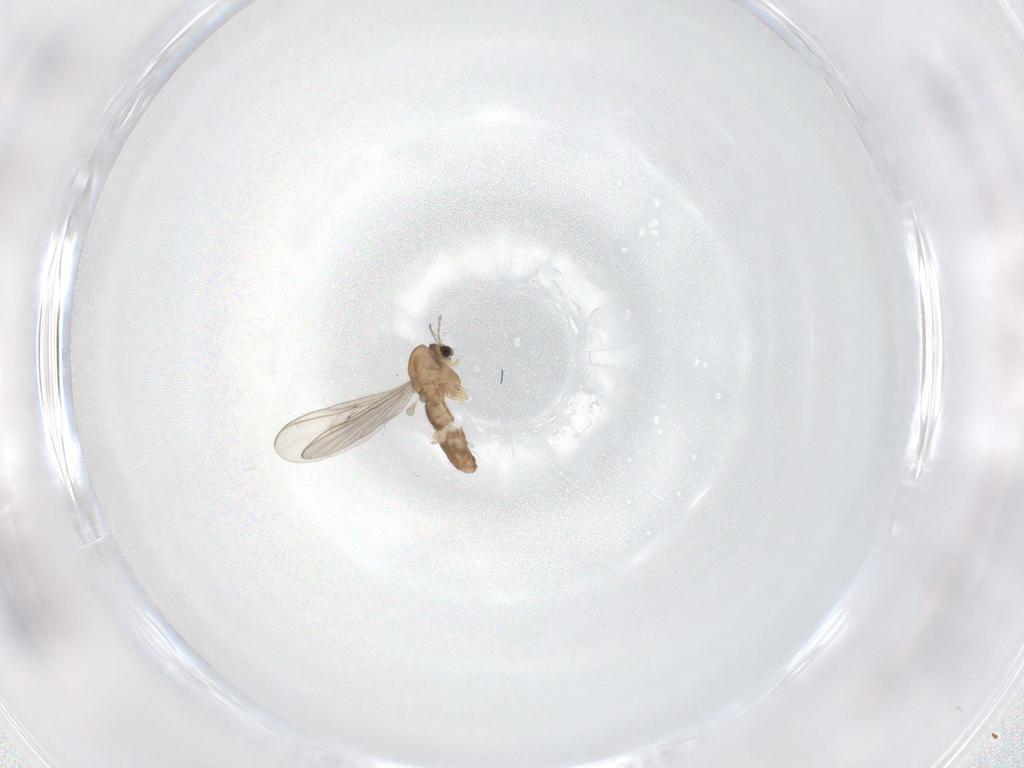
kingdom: Animalia
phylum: Arthropoda
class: Insecta
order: Diptera
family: Chironomidae
